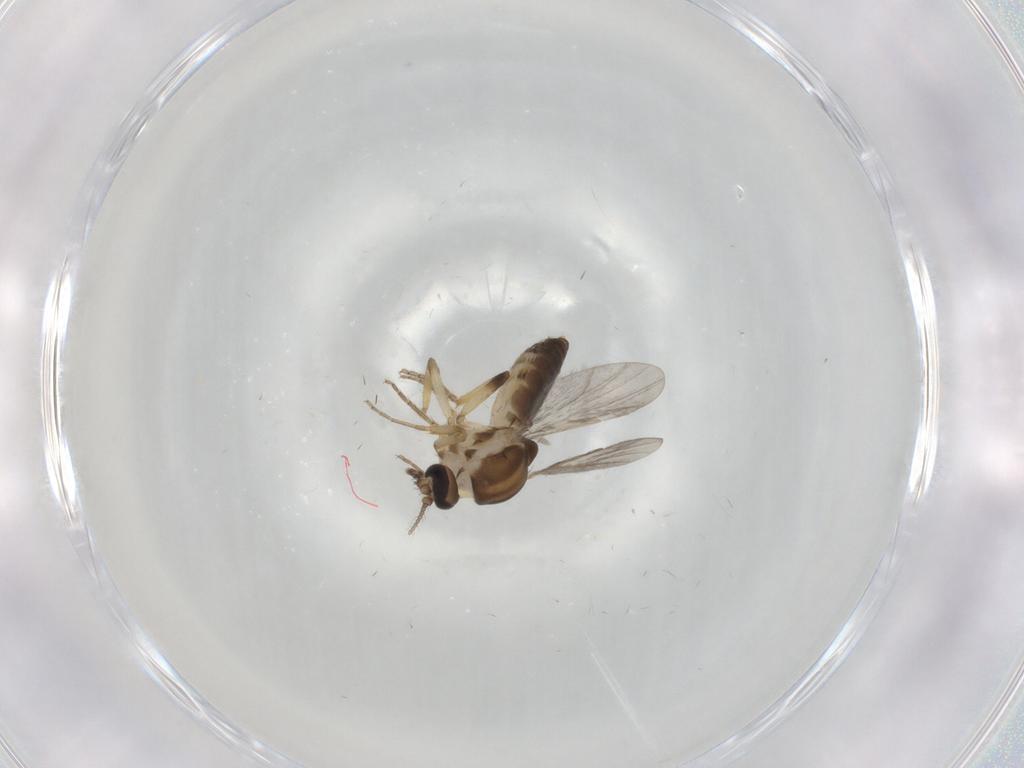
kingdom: Animalia
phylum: Arthropoda
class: Insecta
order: Diptera
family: Ceratopogonidae
